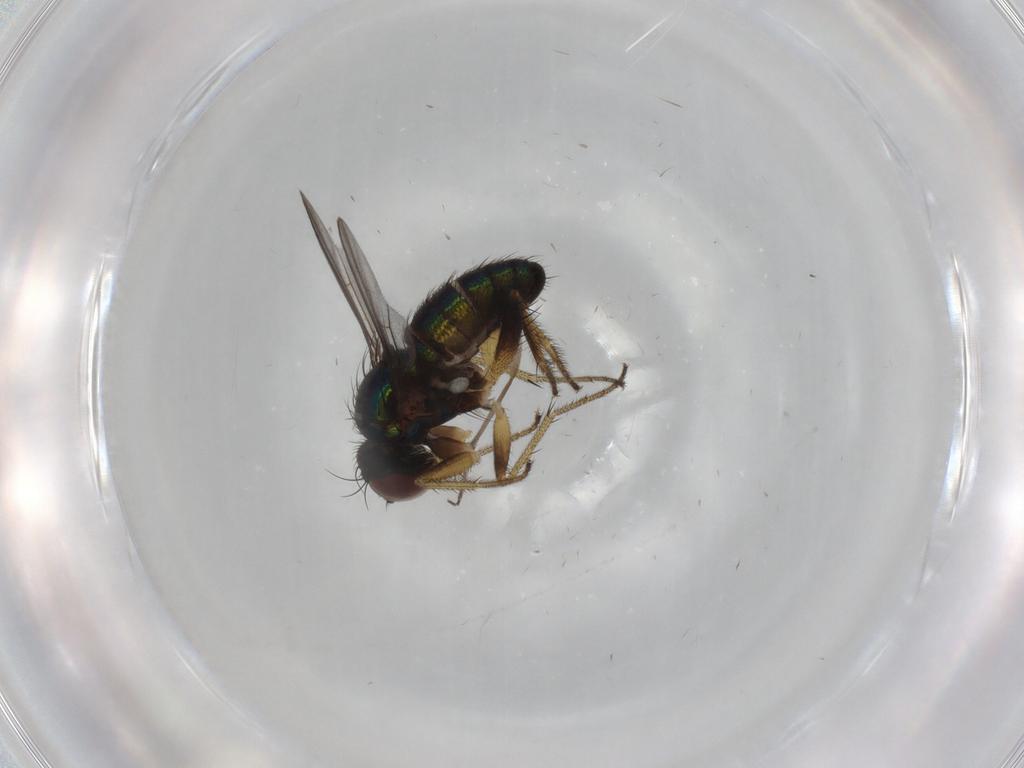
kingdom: Animalia
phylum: Arthropoda
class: Insecta
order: Diptera
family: Dolichopodidae
